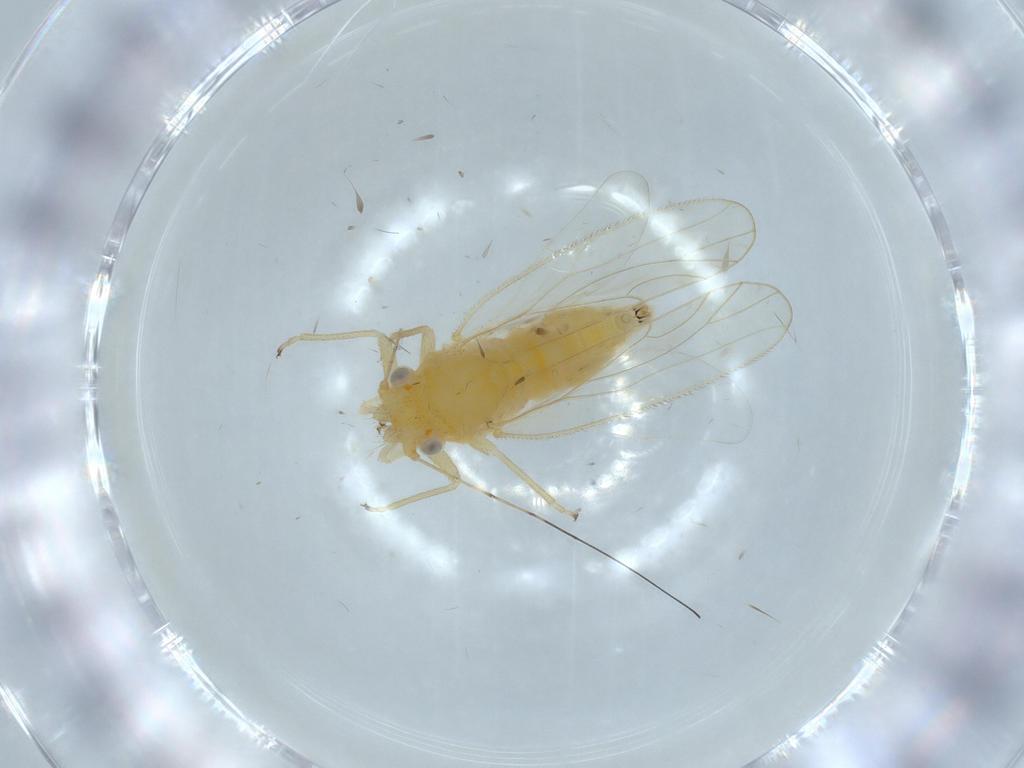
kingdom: Animalia
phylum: Arthropoda
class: Insecta
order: Hemiptera
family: Psyllidae
